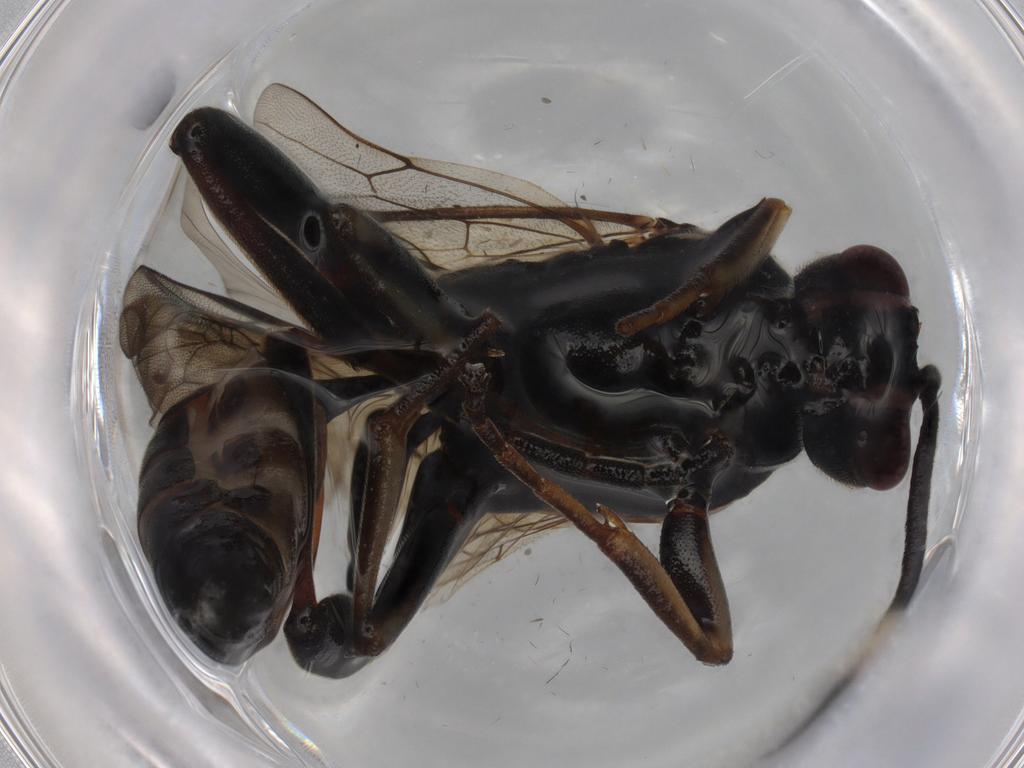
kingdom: Animalia
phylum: Arthropoda
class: Insecta
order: Hymenoptera
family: Ichneumonidae
